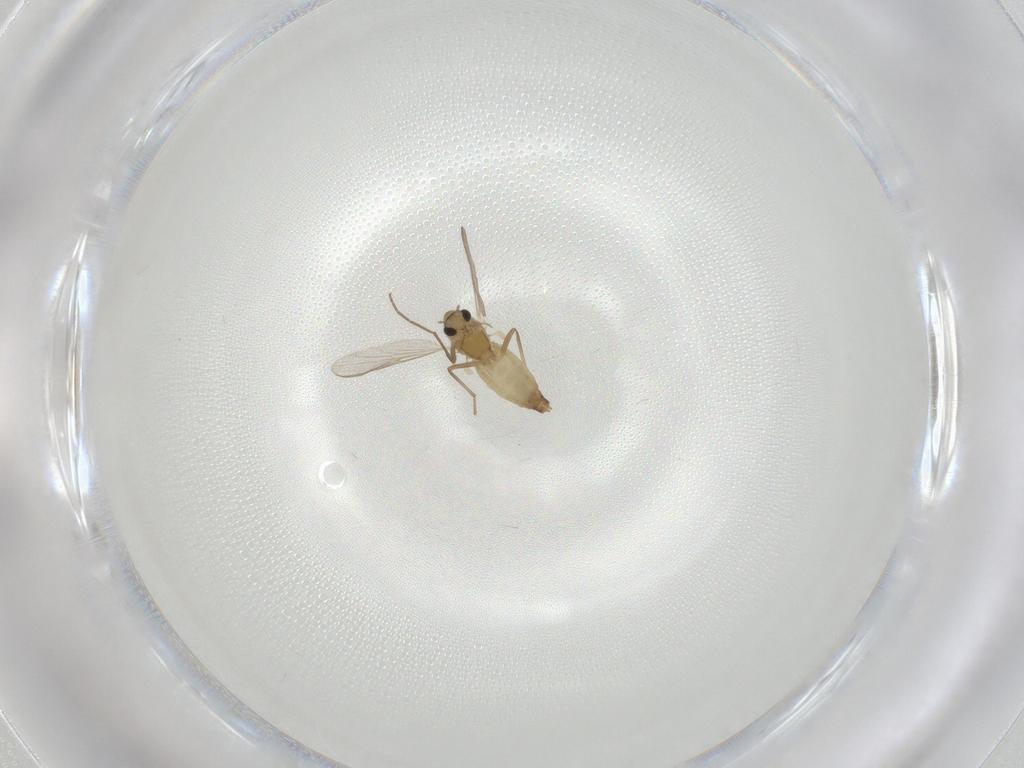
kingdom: Animalia
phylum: Arthropoda
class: Insecta
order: Diptera
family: Chironomidae
